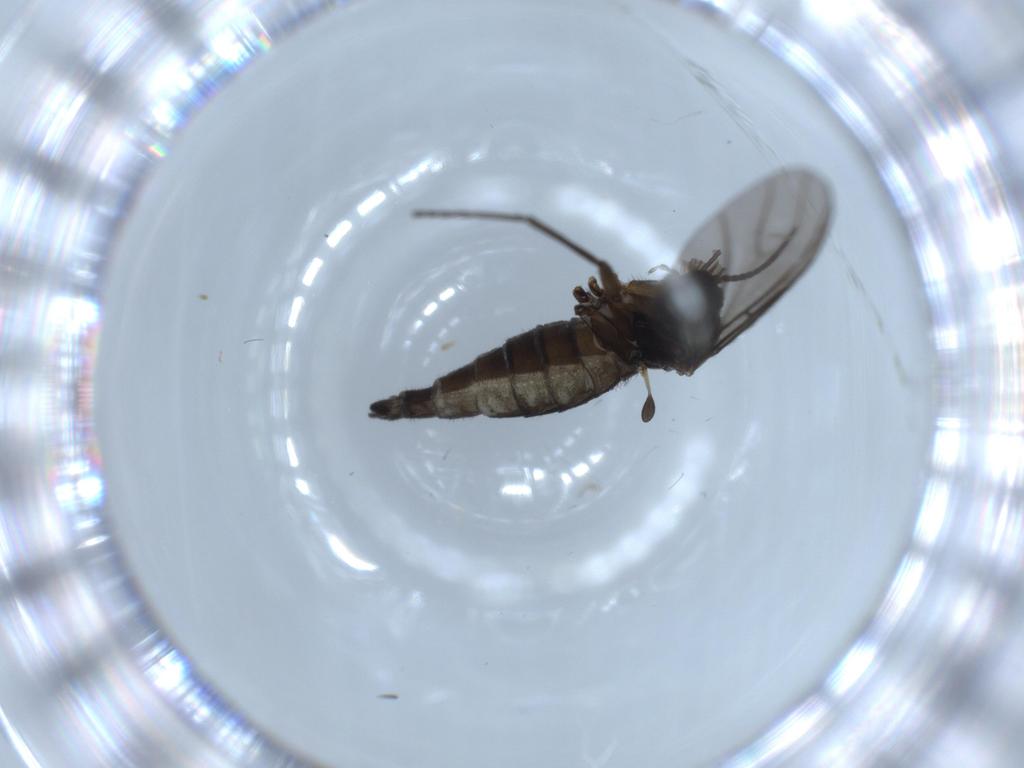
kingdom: Animalia
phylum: Arthropoda
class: Insecta
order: Diptera
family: Sciaridae
